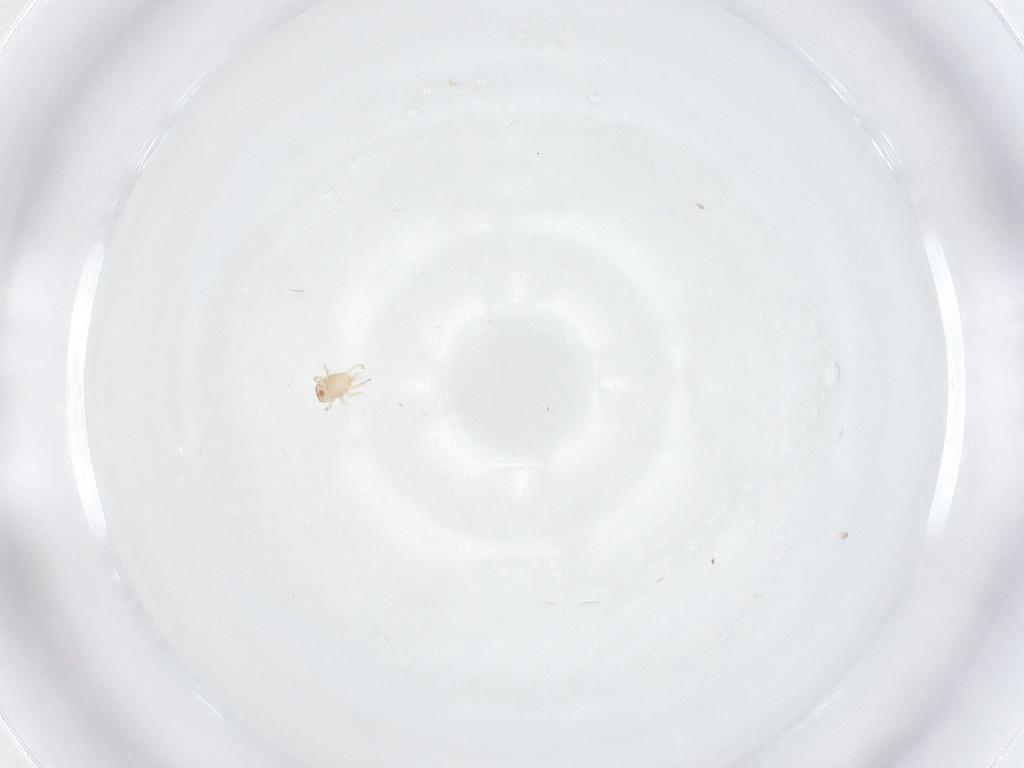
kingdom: Animalia
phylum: Arthropoda
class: Arachnida
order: Mesostigmata
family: Ascidae
